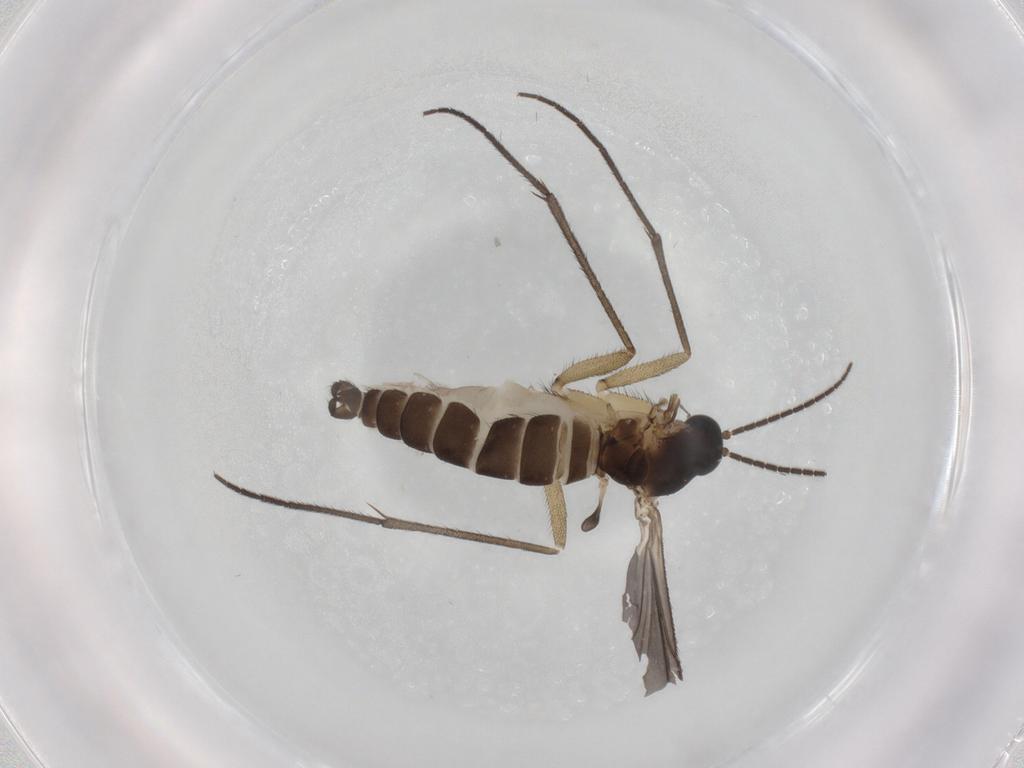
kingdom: Animalia
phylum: Arthropoda
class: Insecta
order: Diptera
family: Sciaridae
